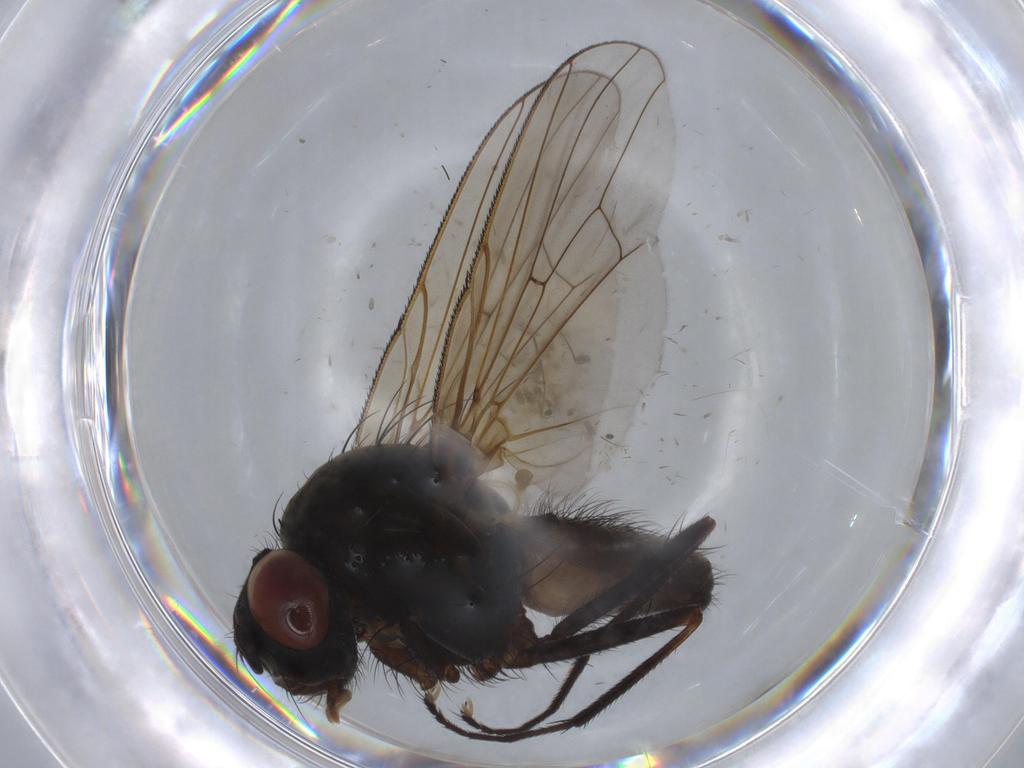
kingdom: Animalia
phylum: Arthropoda
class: Insecta
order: Diptera
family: Anthomyiidae
